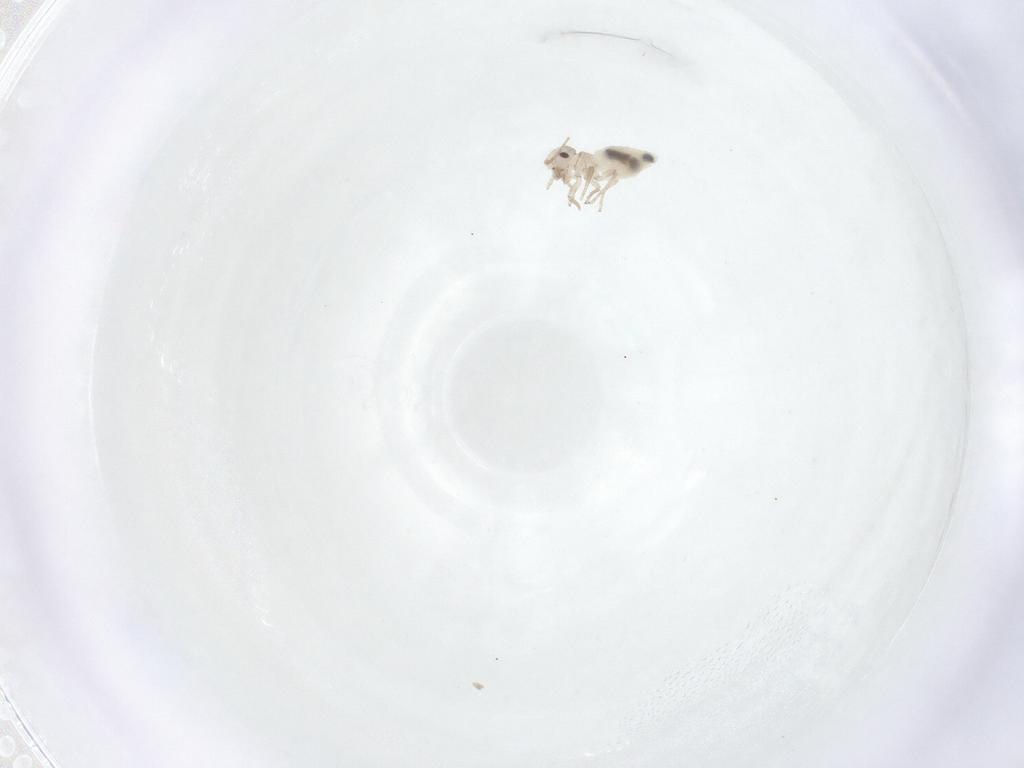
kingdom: Animalia
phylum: Arthropoda
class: Insecta
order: Psocodea
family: Caeciliusidae
